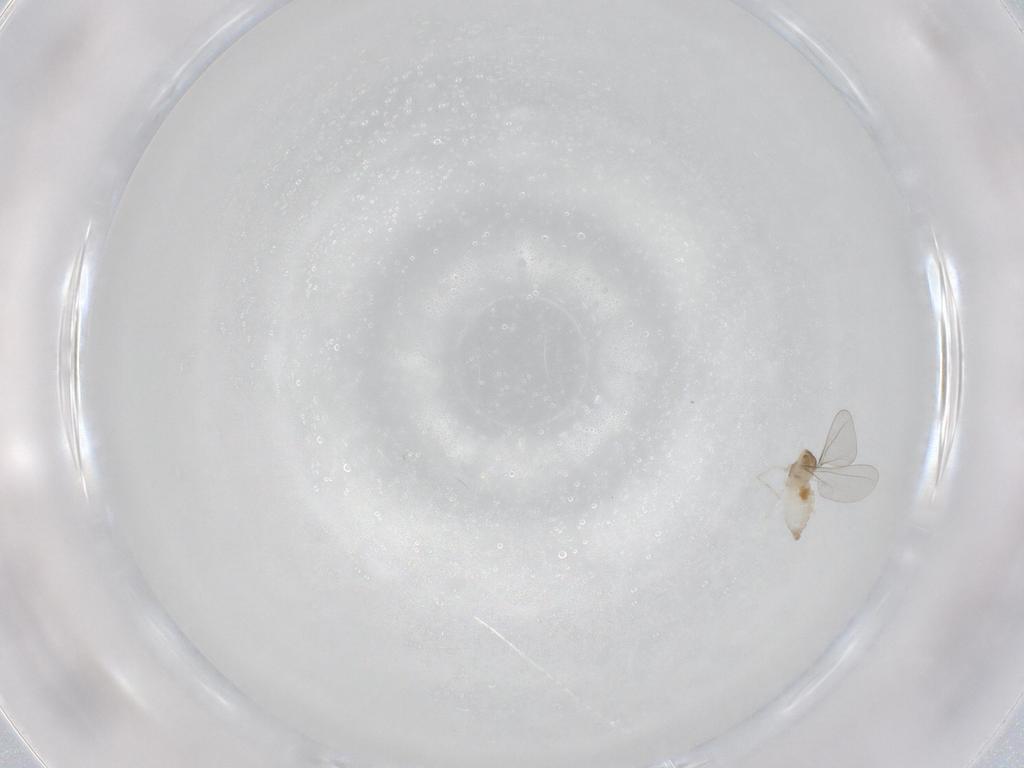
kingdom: Animalia
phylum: Arthropoda
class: Insecta
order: Diptera
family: Cecidomyiidae
